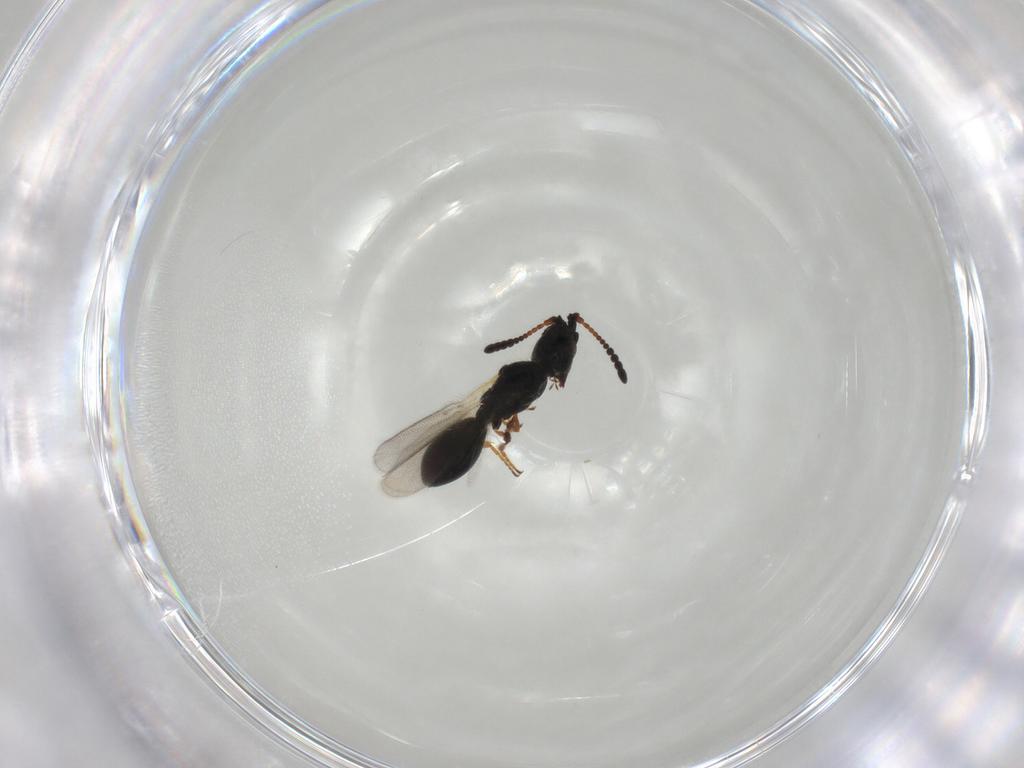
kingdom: Animalia
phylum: Arthropoda
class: Insecta
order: Hymenoptera
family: Diapriidae
